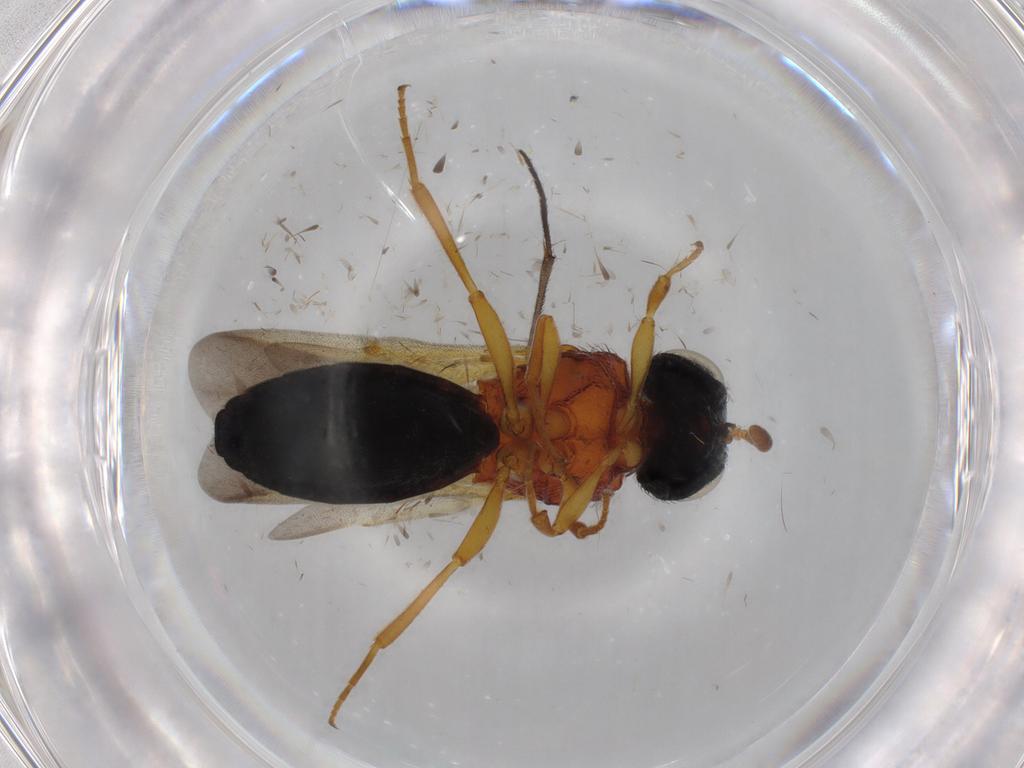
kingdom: Animalia
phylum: Arthropoda
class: Insecta
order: Hymenoptera
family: Scelionidae
